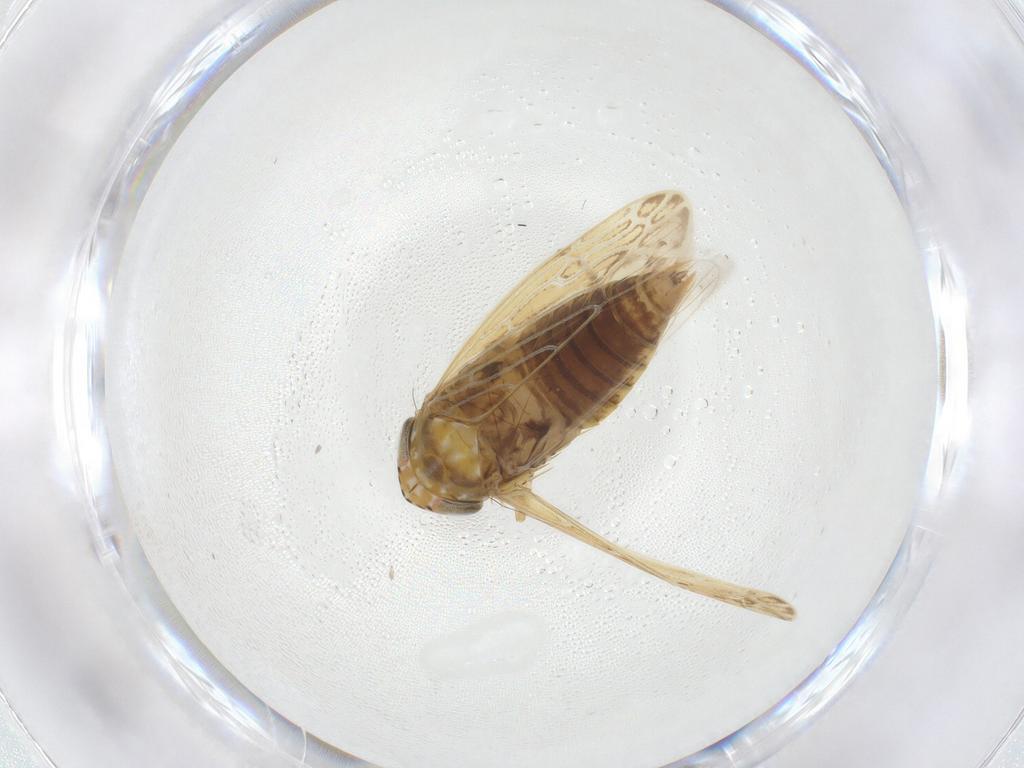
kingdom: Animalia
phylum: Arthropoda
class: Insecta
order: Hemiptera
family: Cicadellidae
